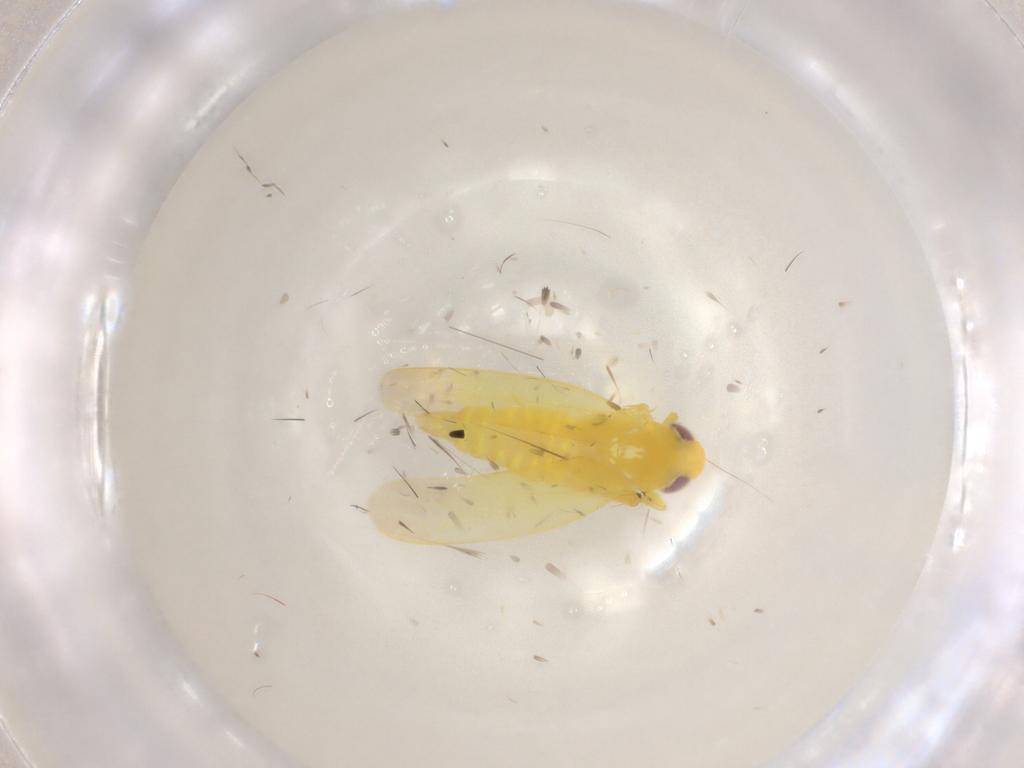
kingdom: Animalia
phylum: Arthropoda
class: Insecta
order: Hemiptera
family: Cicadellidae
